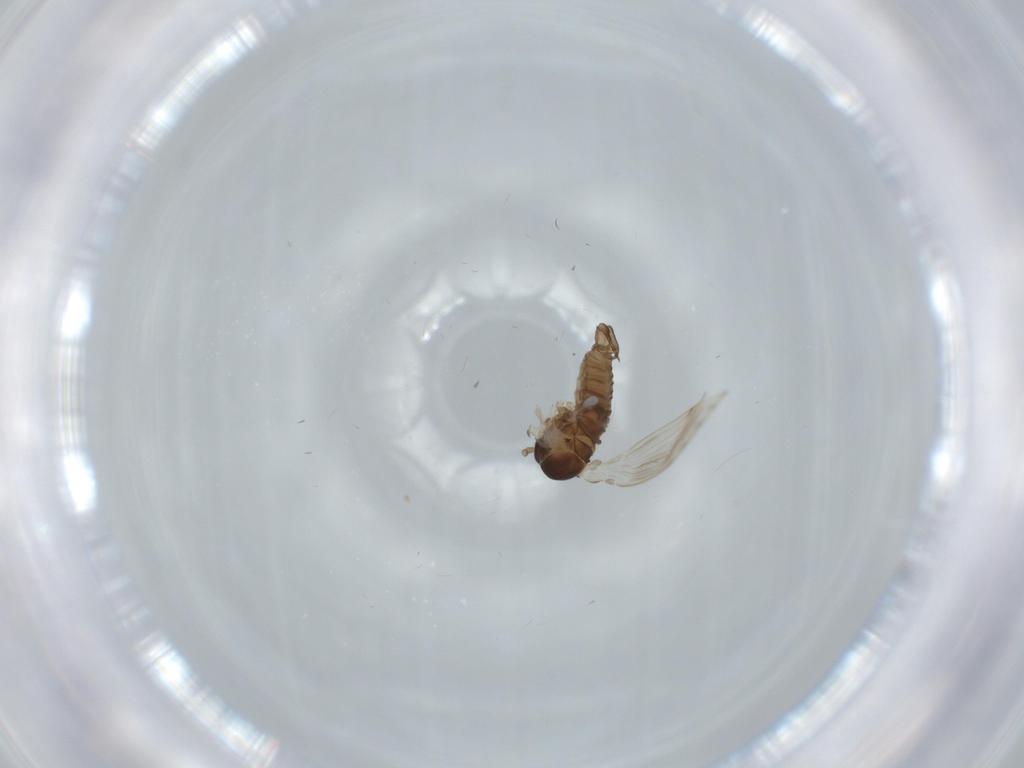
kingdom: Animalia
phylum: Arthropoda
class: Insecta
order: Diptera
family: Psychodidae
